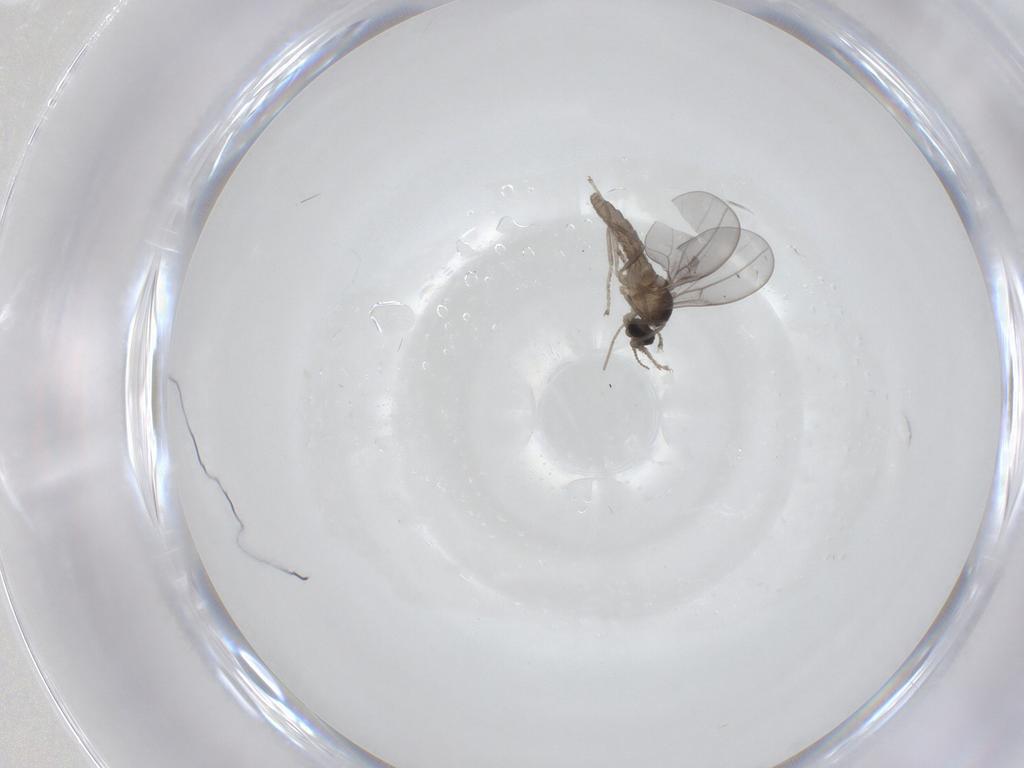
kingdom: Animalia
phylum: Arthropoda
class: Insecta
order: Diptera
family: Cecidomyiidae
